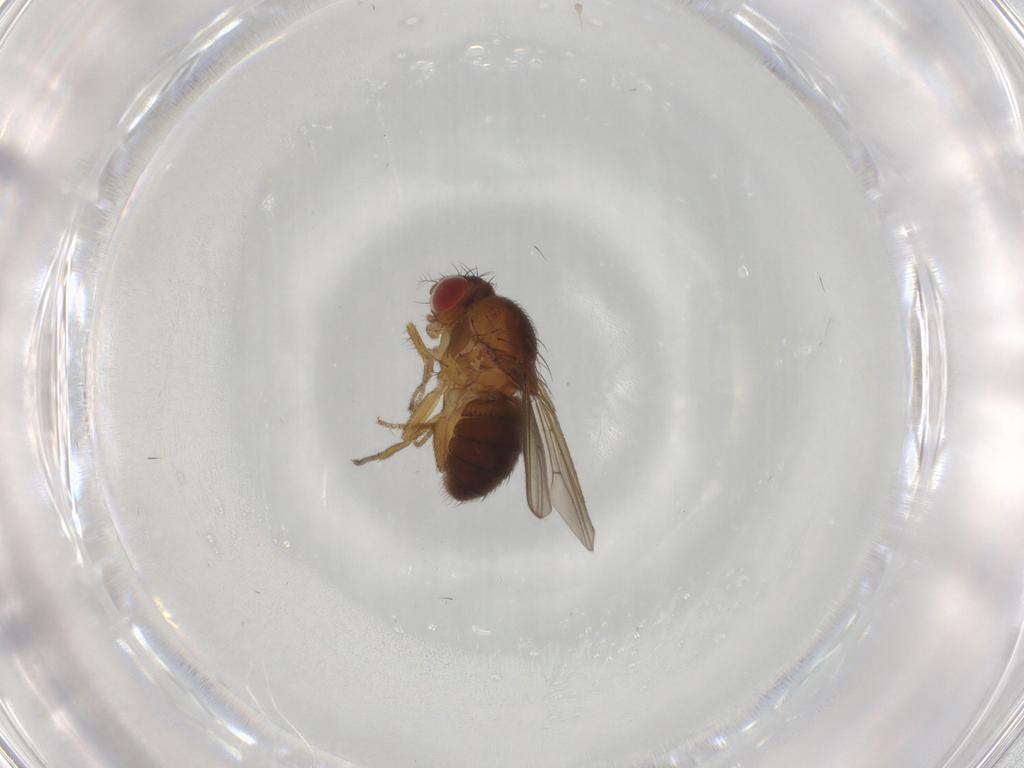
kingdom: Animalia
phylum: Arthropoda
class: Insecta
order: Diptera
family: Drosophilidae
